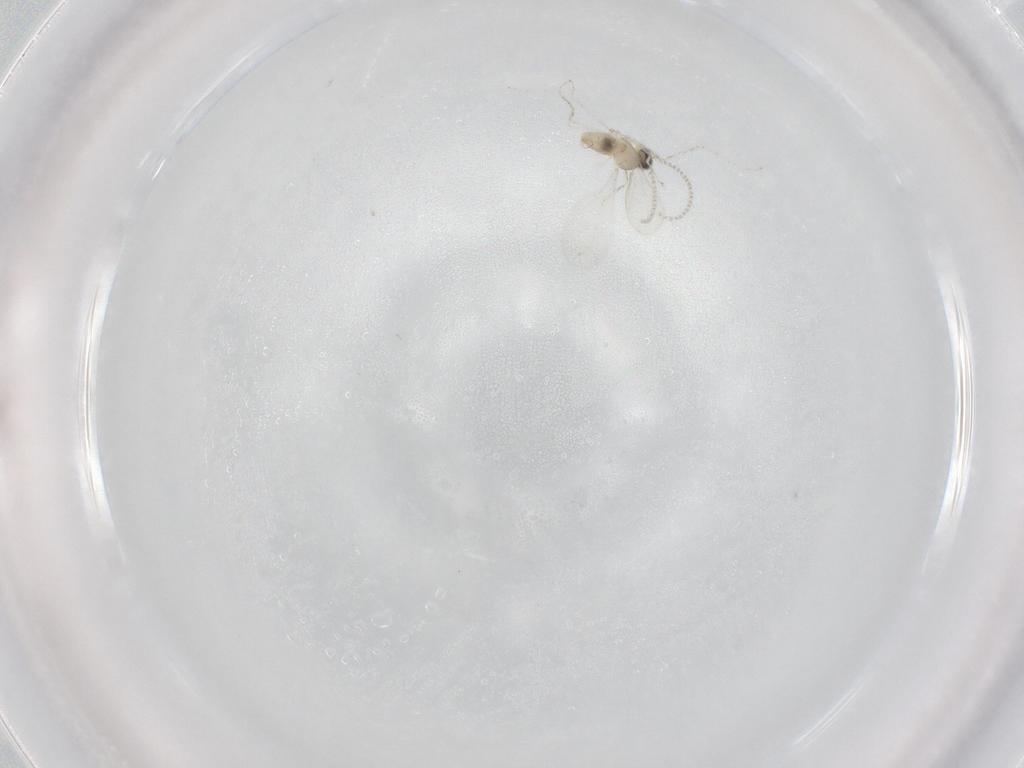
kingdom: Animalia
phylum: Arthropoda
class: Insecta
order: Diptera
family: Cecidomyiidae
